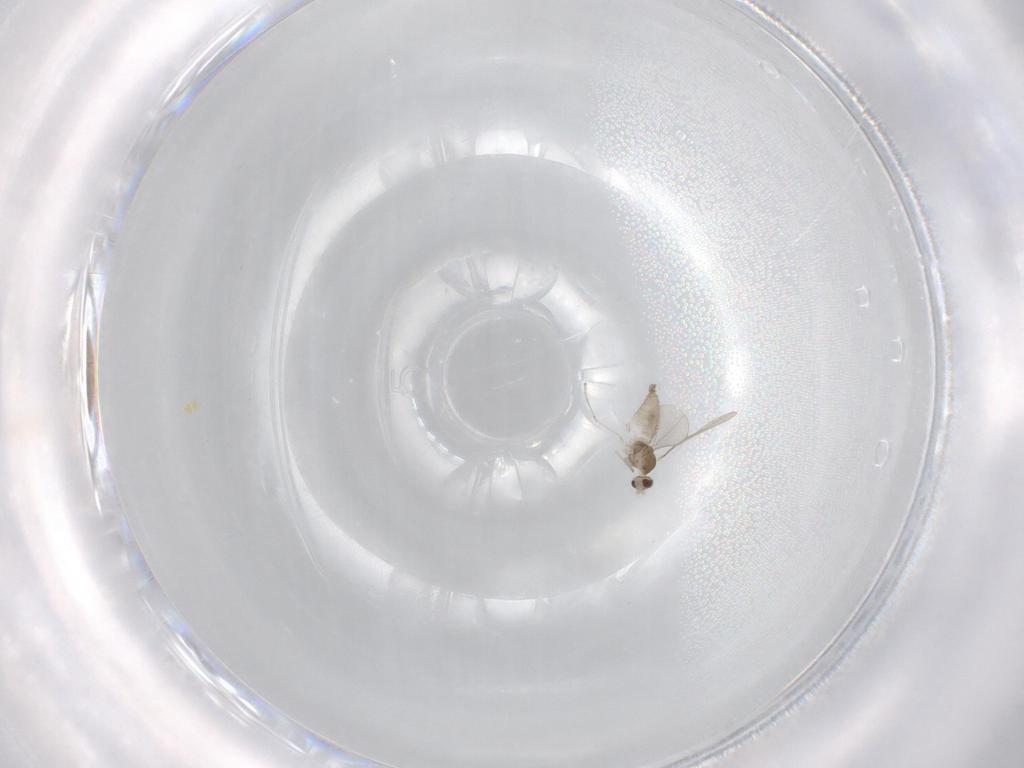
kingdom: Animalia
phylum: Arthropoda
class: Insecta
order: Diptera
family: Cecidomyiidae
